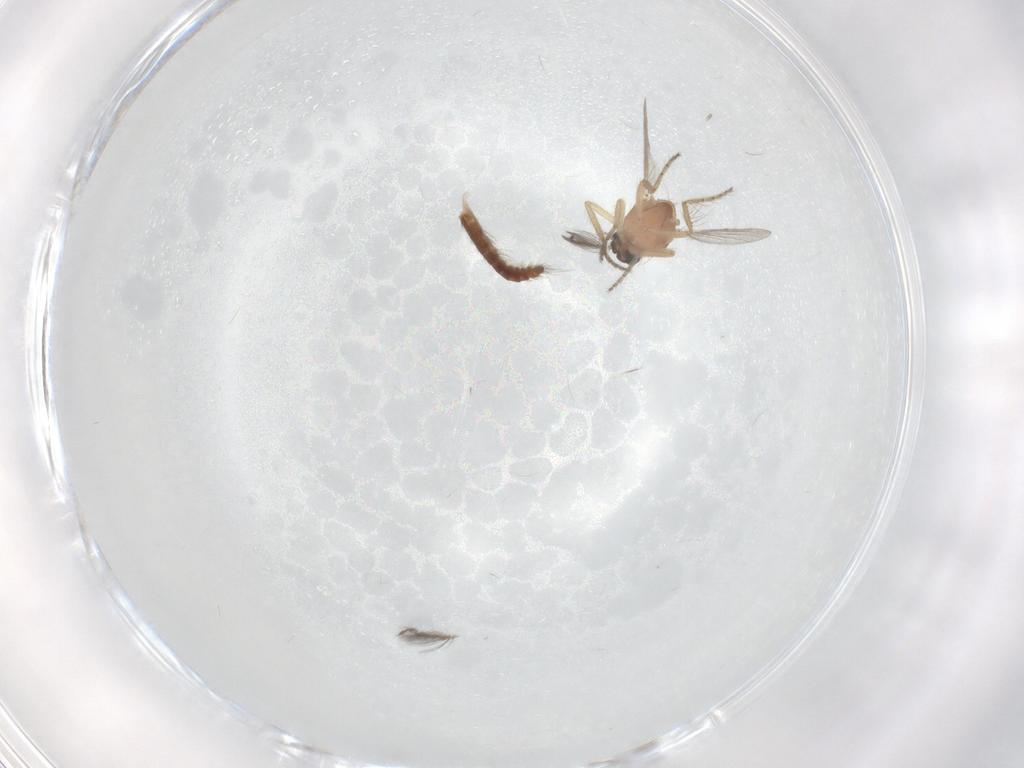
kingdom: Animalia
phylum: Arthropoda
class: Insecta
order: Diptera
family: Ceratopogonidae
